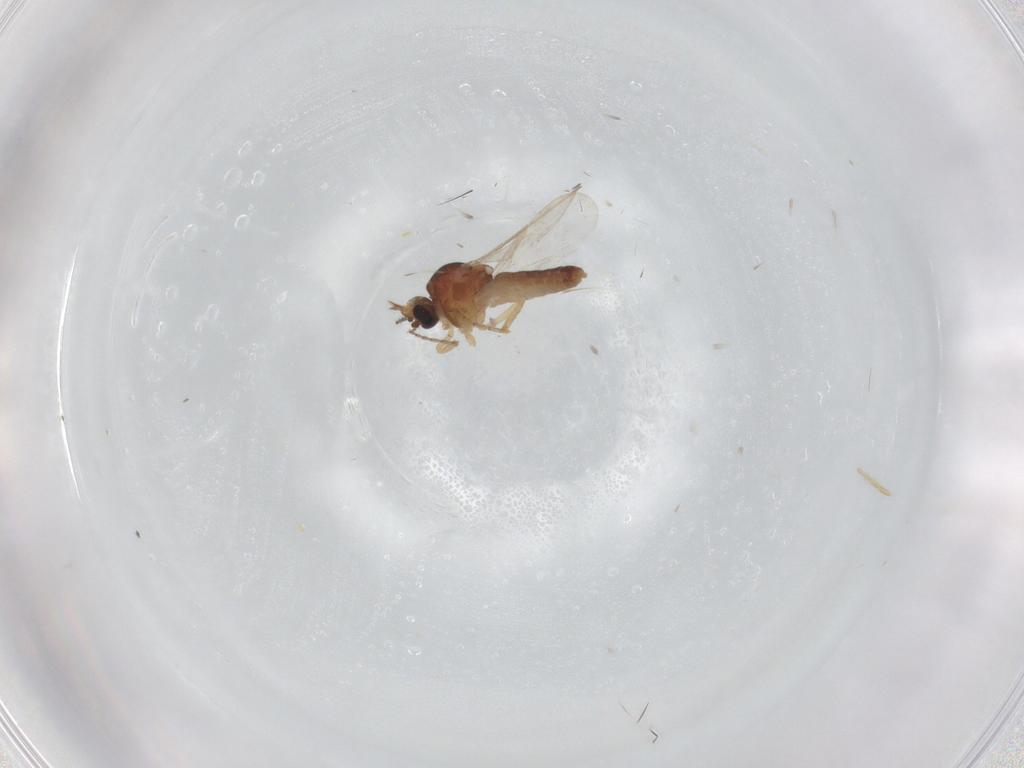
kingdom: Animalia
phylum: Arthropoda
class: Insecta
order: Diptera
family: Ceratopogonidae
